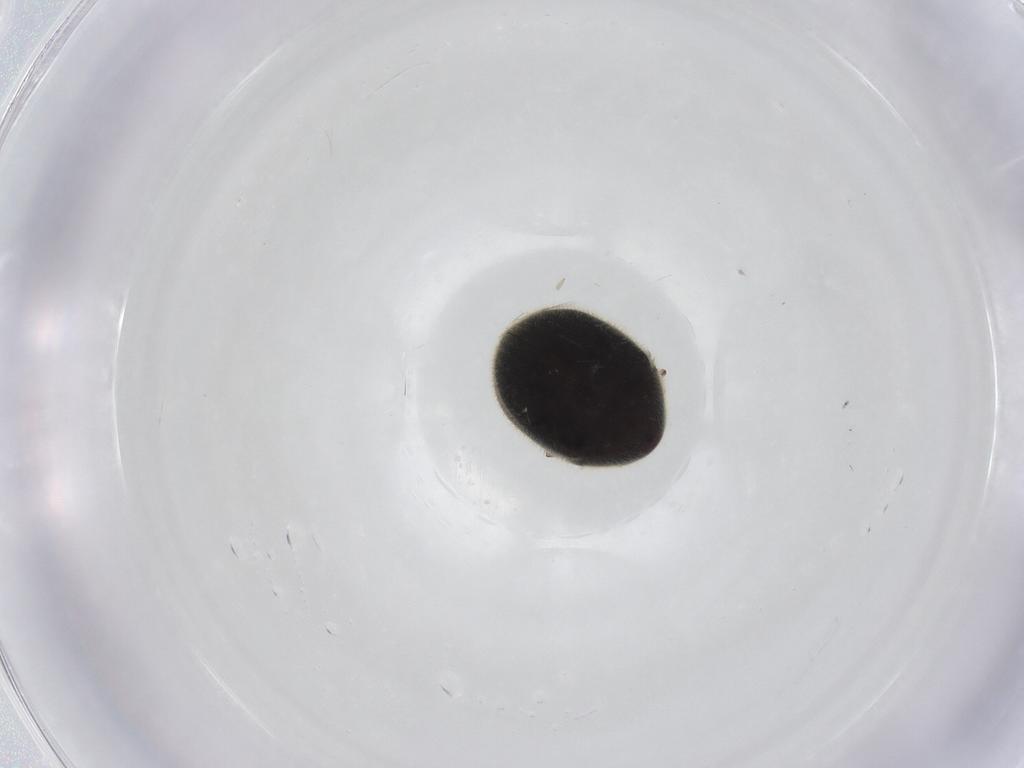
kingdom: Animalia
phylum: Arthropoda
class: Insecta
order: Coleoptera
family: Ptinidae
